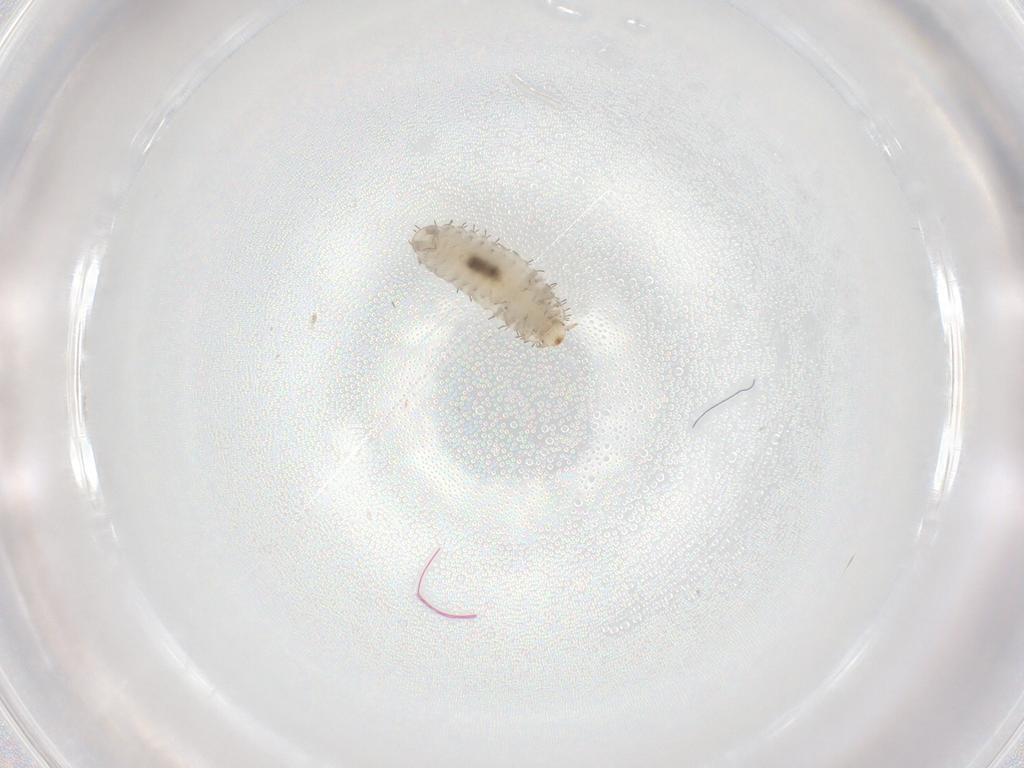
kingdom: Animalia
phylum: Arthropoda
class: Insecta
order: Coleoptera
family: Corylophidae
